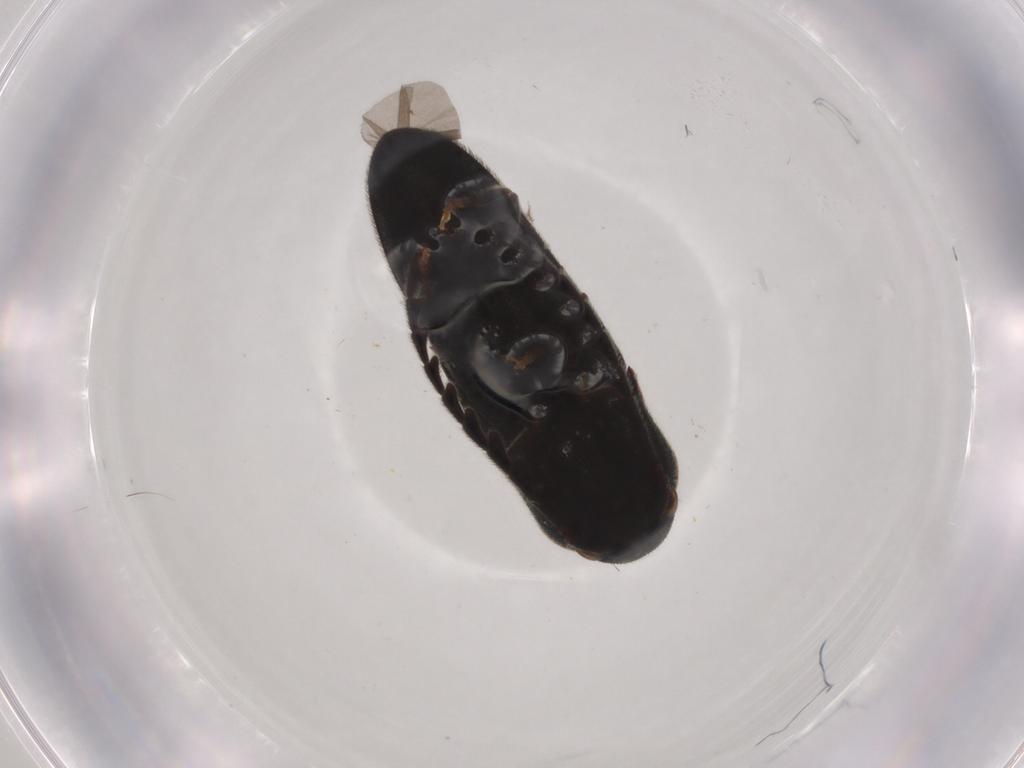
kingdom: Animalia
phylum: Arthropoda
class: Insecta
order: Coleoptera
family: Eucnemidae
